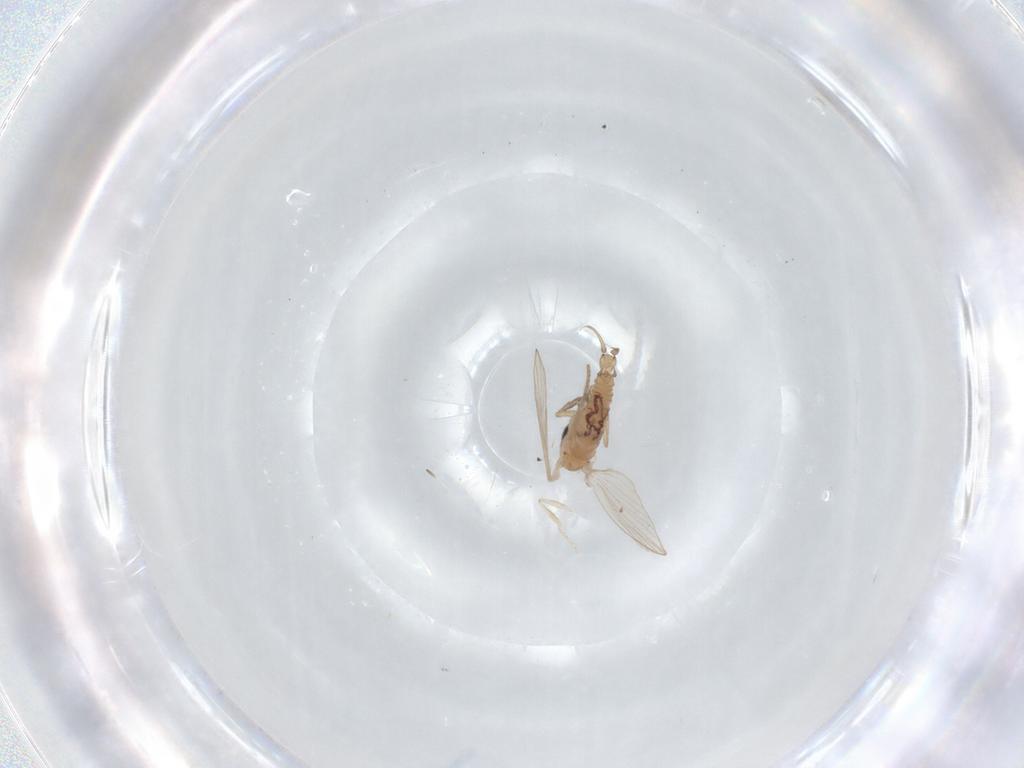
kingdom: Animalia
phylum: Arthropoda
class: Insecta
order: Diptera
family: Psychodidae
